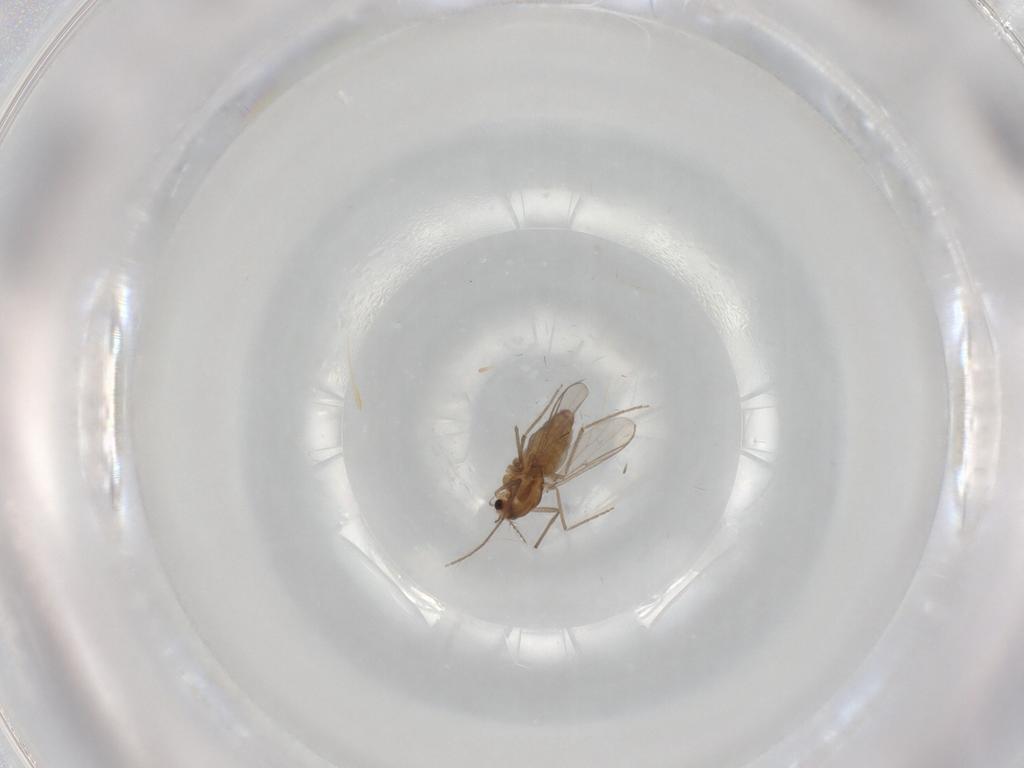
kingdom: Animalia
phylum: Arthropoda
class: Insecta
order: Diptera
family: Chironomidae
